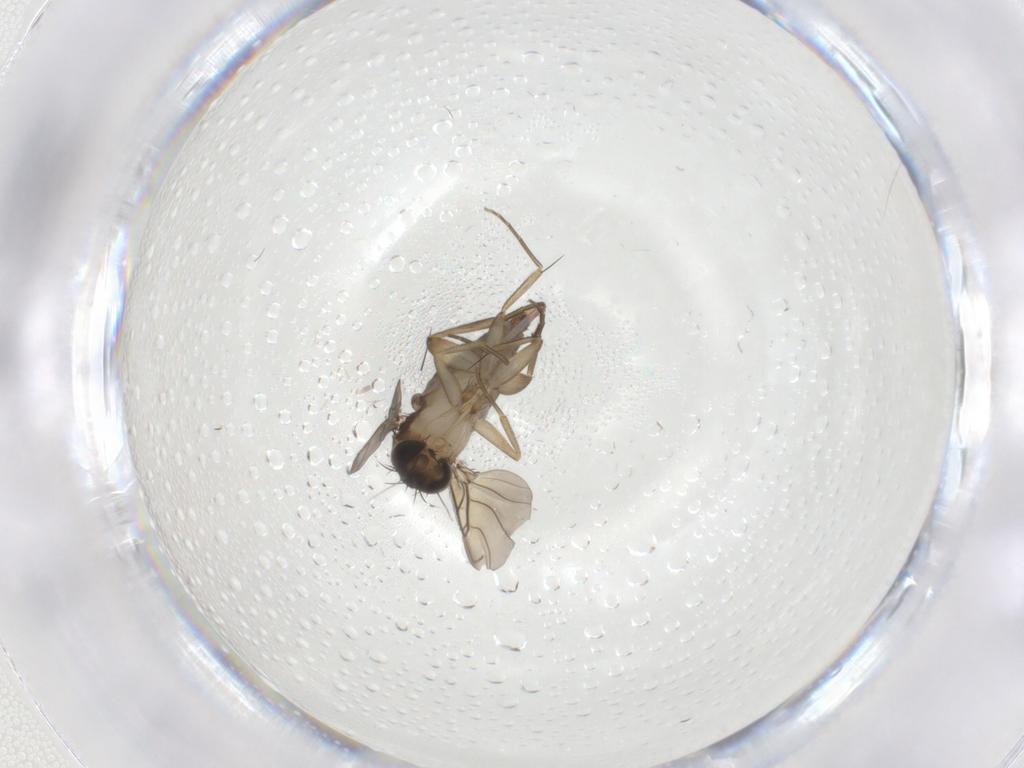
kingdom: Animalia
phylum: Arthropoda
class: Insecta
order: Diptera
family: Phoridae
